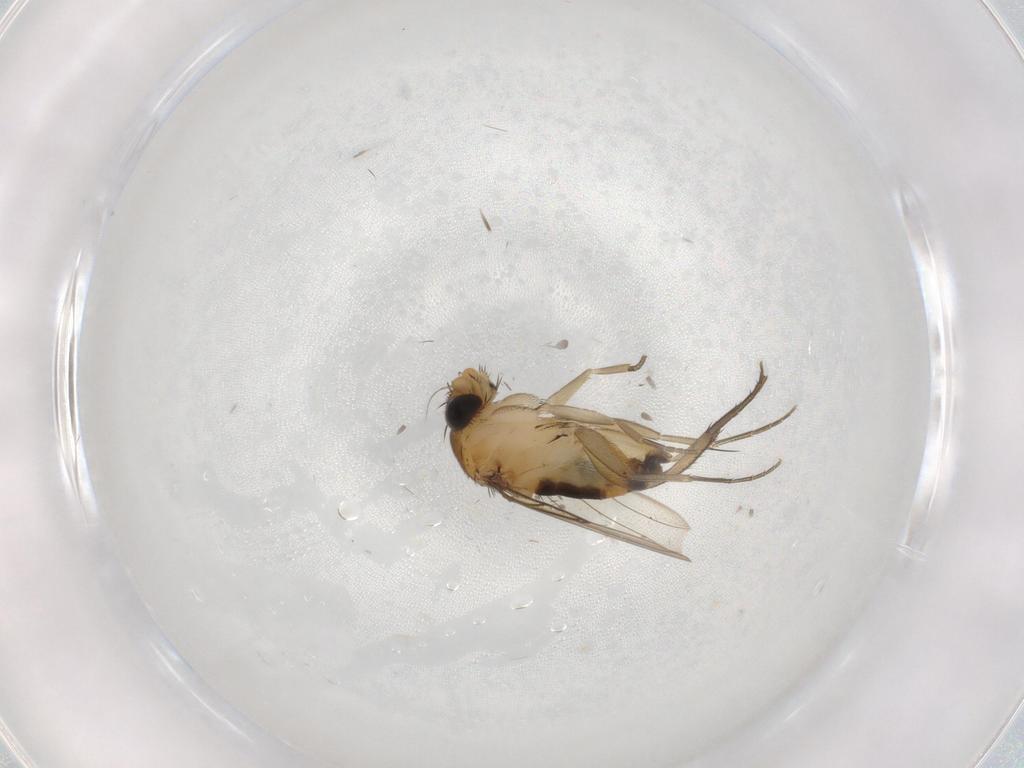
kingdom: Animalia
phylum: Arthropoda
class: Insecta
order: Diptera
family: Phoridae
